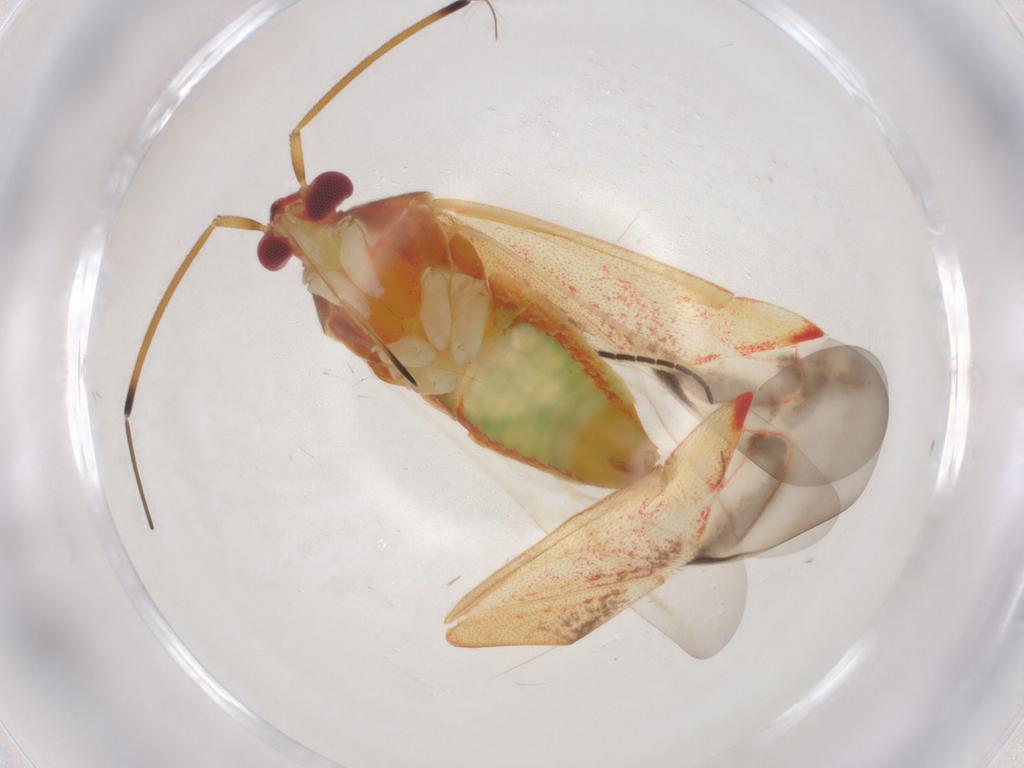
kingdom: Animalia
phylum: Arthropoda
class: Insecta
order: Hemiptera
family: Miridae
